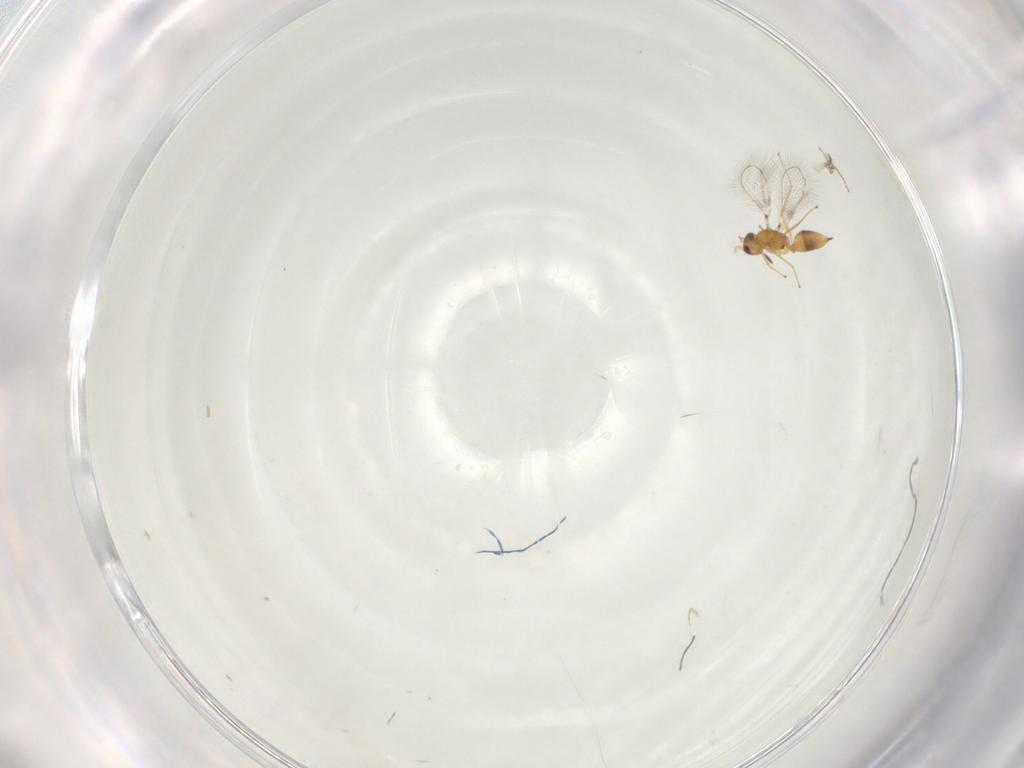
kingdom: Animalia
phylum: Arthropoda
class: Insecta
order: Hymenoptera
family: Mymaridae
